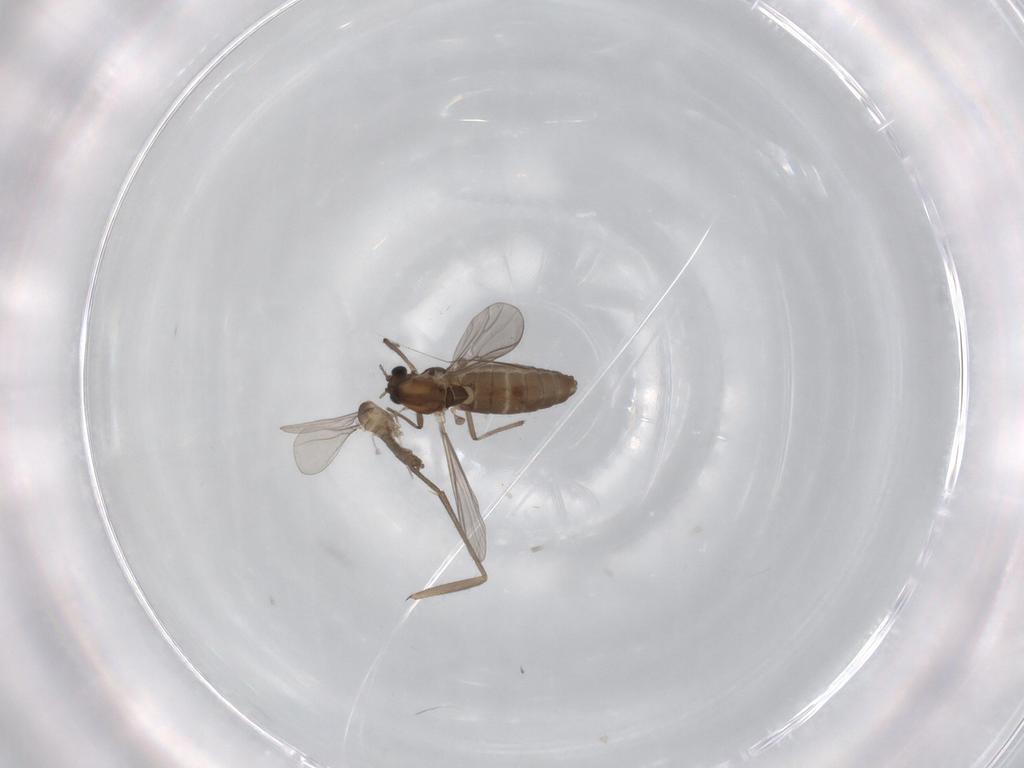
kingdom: Animalia
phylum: Arthropoda
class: Insecta
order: Diptera
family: Chironomidae
